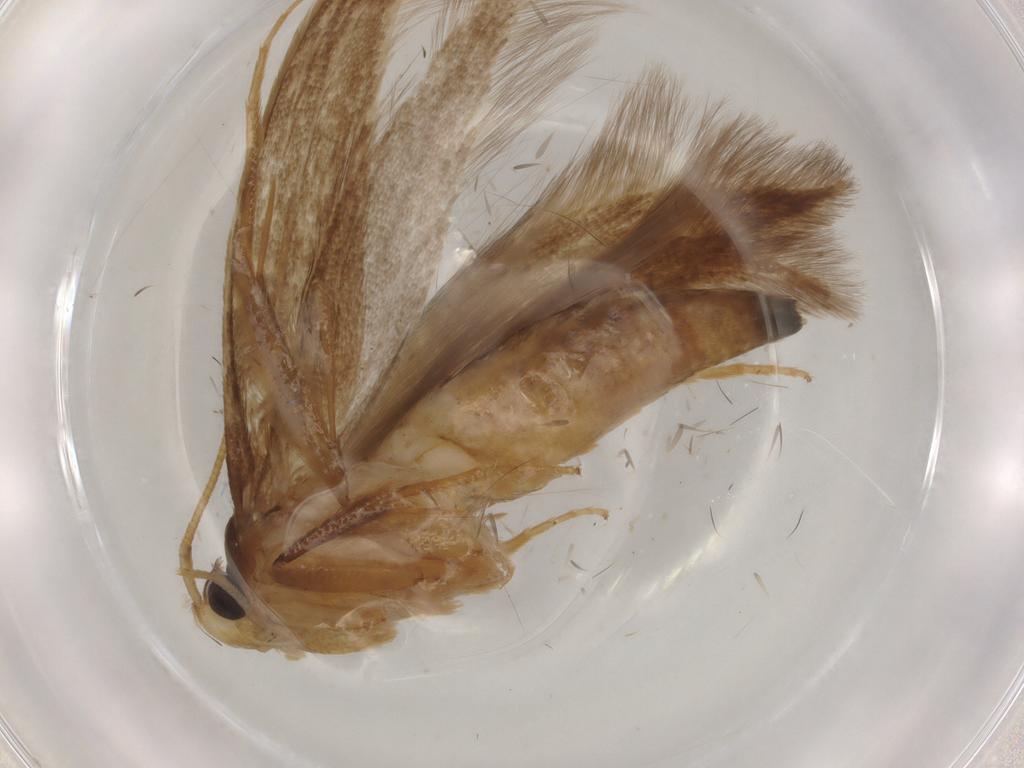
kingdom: Animalia
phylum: Arthropoda
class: Insecta
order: Lepidoptera
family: Tineidae
